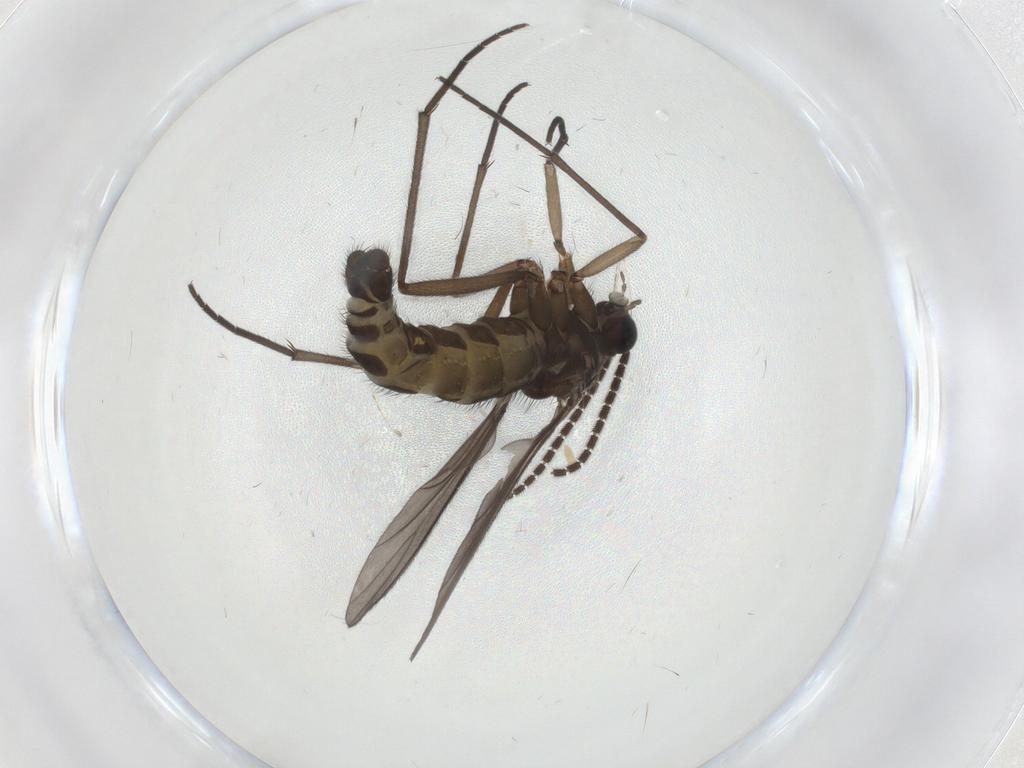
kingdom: Animalia
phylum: Arthropoda
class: Insecta
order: Diptera
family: Sciaridae
